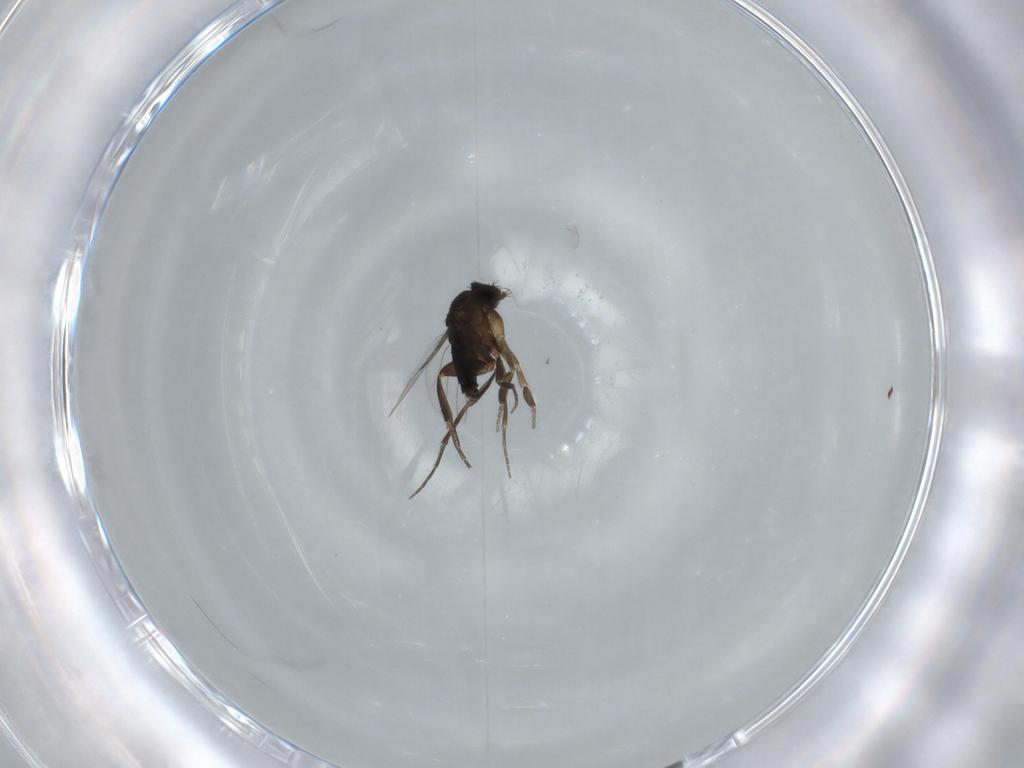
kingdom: Animalia
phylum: Arthropoda
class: Insecta
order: Diptera
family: Phoridae
